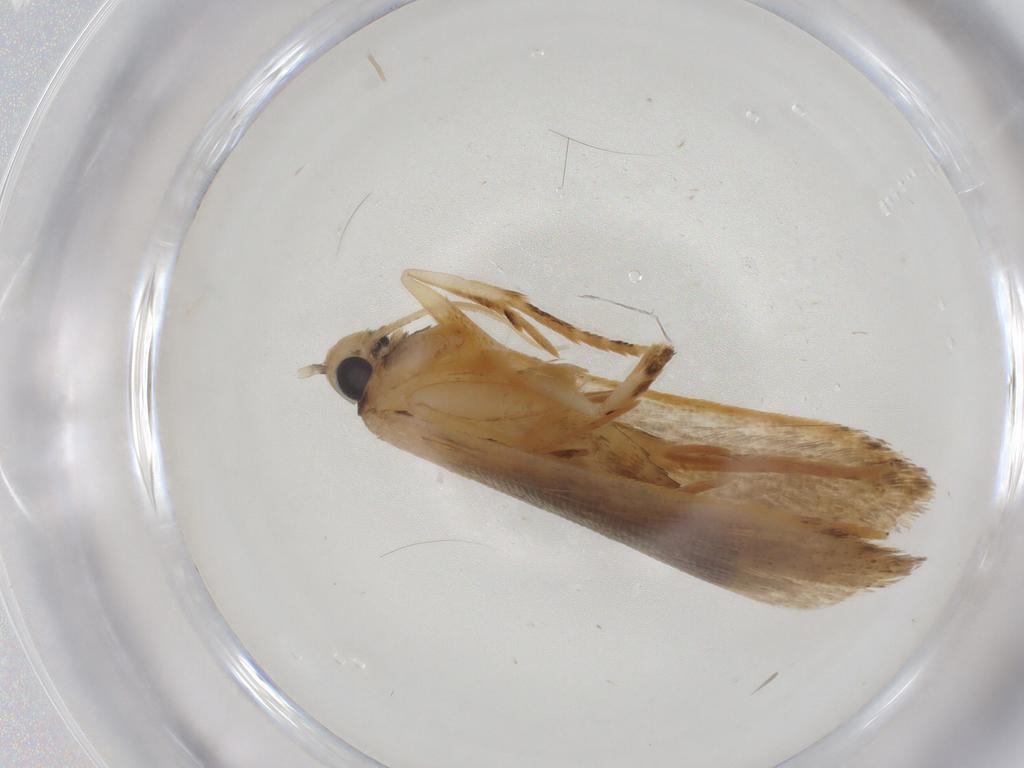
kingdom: Animalia
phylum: Arthropoda
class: Insecta
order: Lepidoptera
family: Gelechiidae
